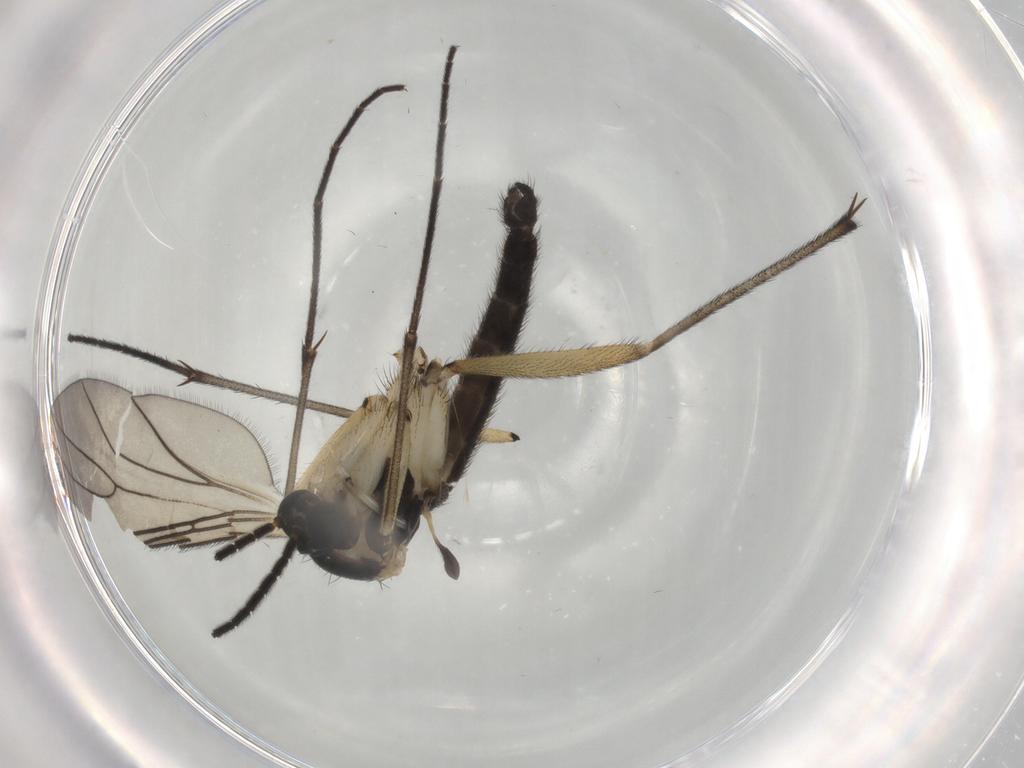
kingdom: Animalia
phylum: Arthropoda
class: Insecta
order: Diptera
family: Sciaridae
